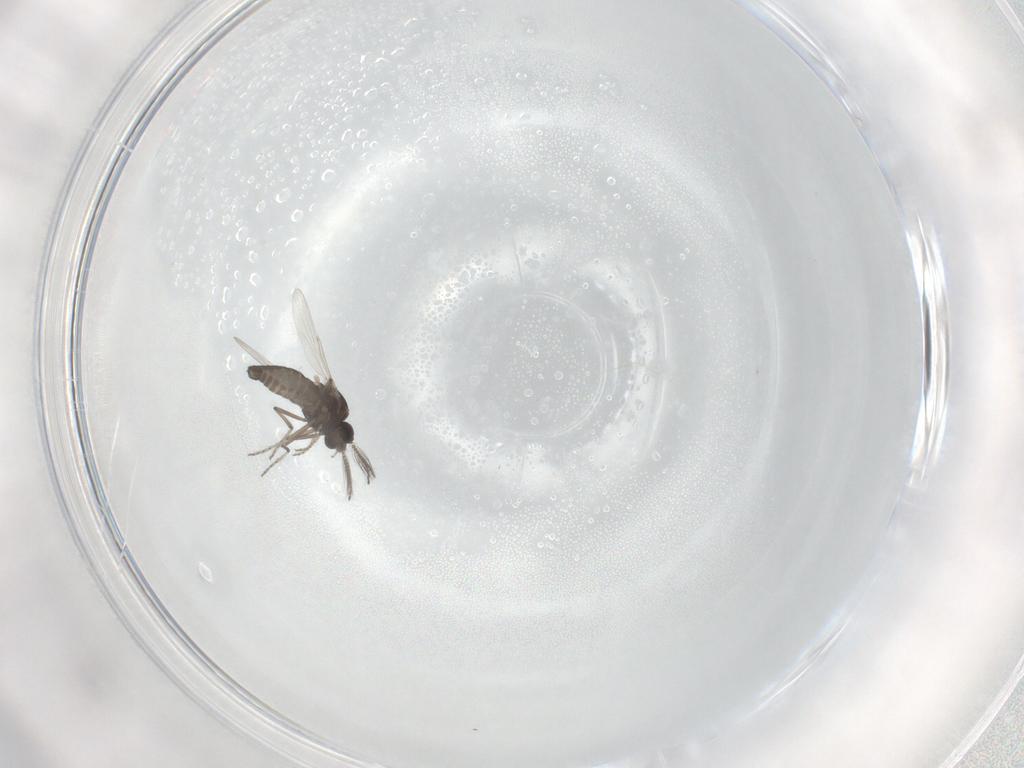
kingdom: Animalia
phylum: Arthropoda
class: Insecta
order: Diptera
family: Ceratopogonidae
